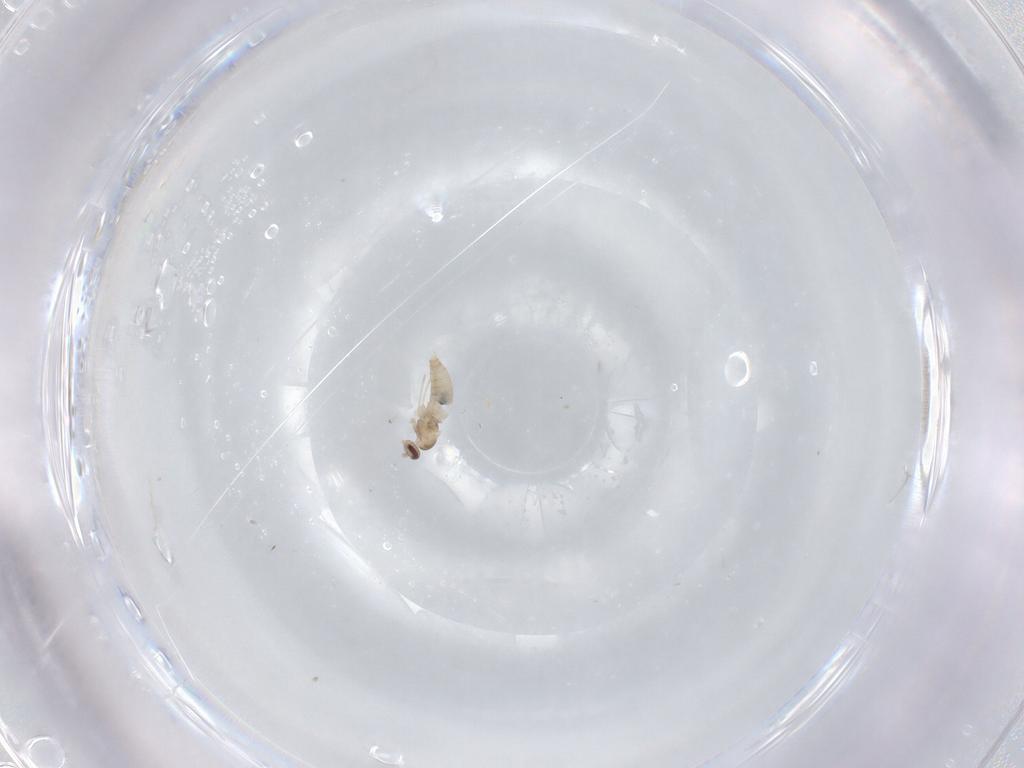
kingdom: Animalia
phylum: Arthropoda
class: Insecta
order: Diptera
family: Cecidomyiidae
